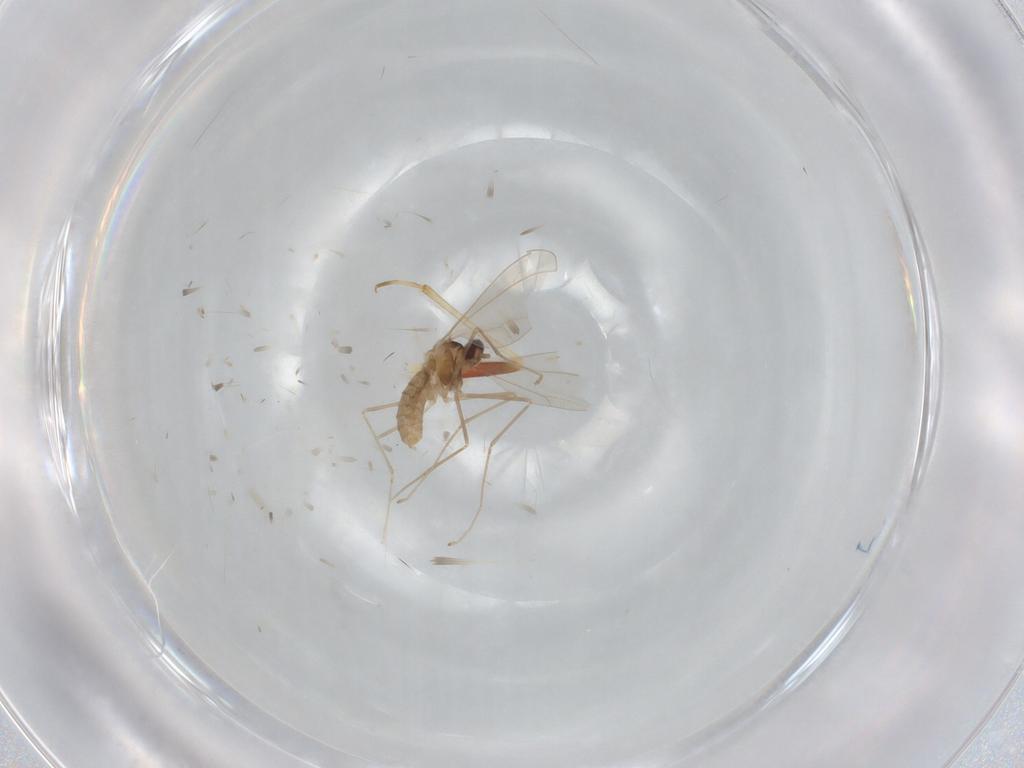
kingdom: Animalia
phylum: Arthropoda
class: Insecta
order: Diptera
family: Cecidomyiidae
